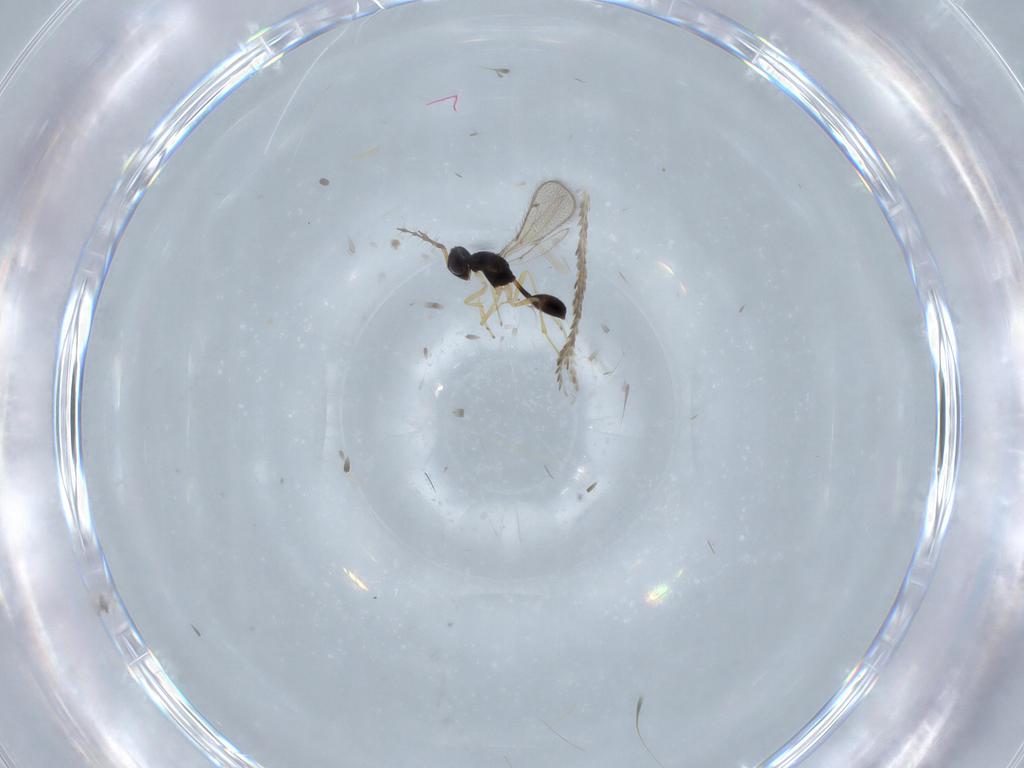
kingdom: Animalia
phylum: Arthropoda
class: Insecta
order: Hymenoptera
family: Diparidae
